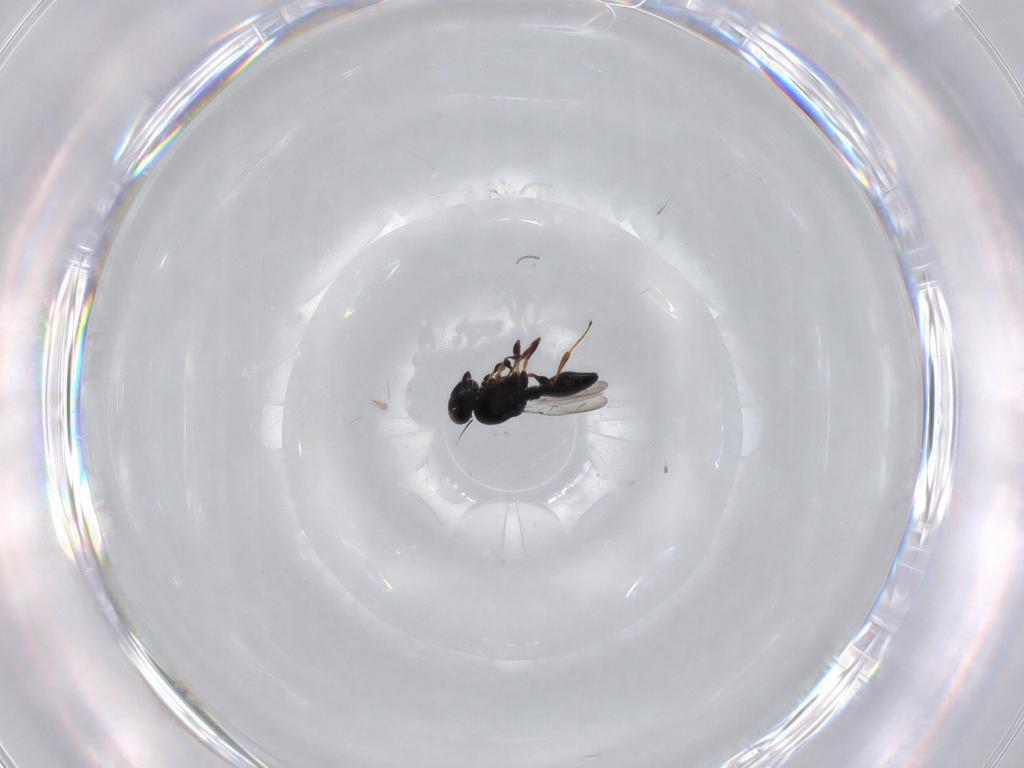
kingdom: Animalia
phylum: Arthropoda
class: Insecta
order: Hymenoptera
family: Platygastridae
